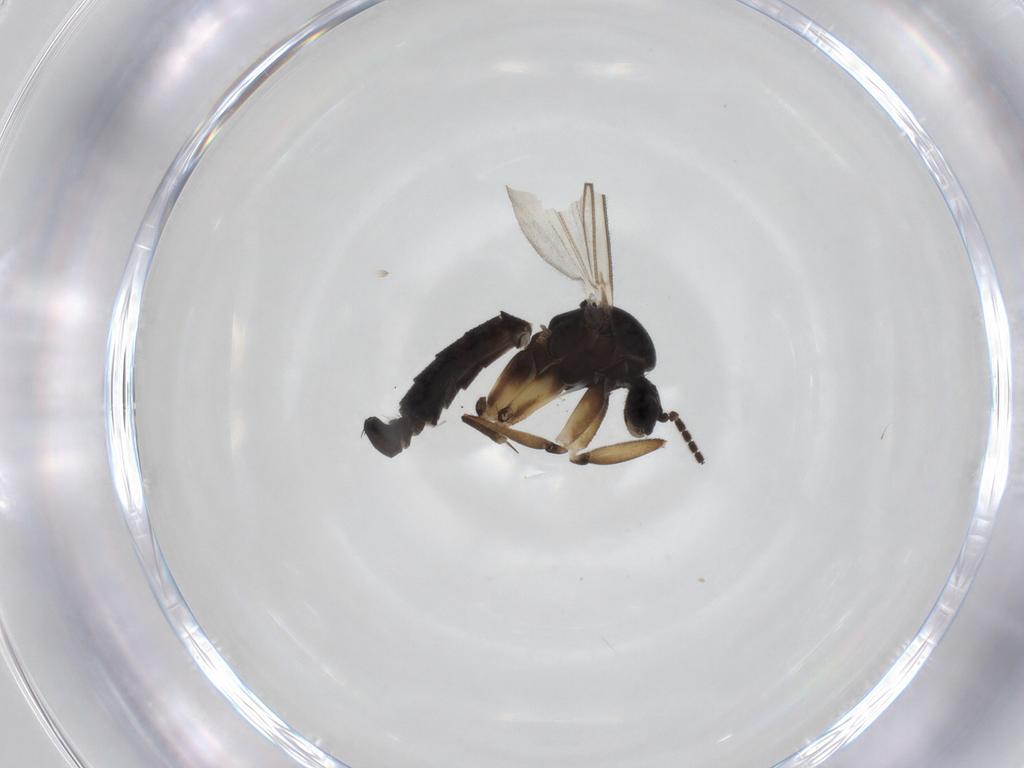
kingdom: Animalia
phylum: Arthropoda
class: Insecta
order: Diptera
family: Mycetophilidae
